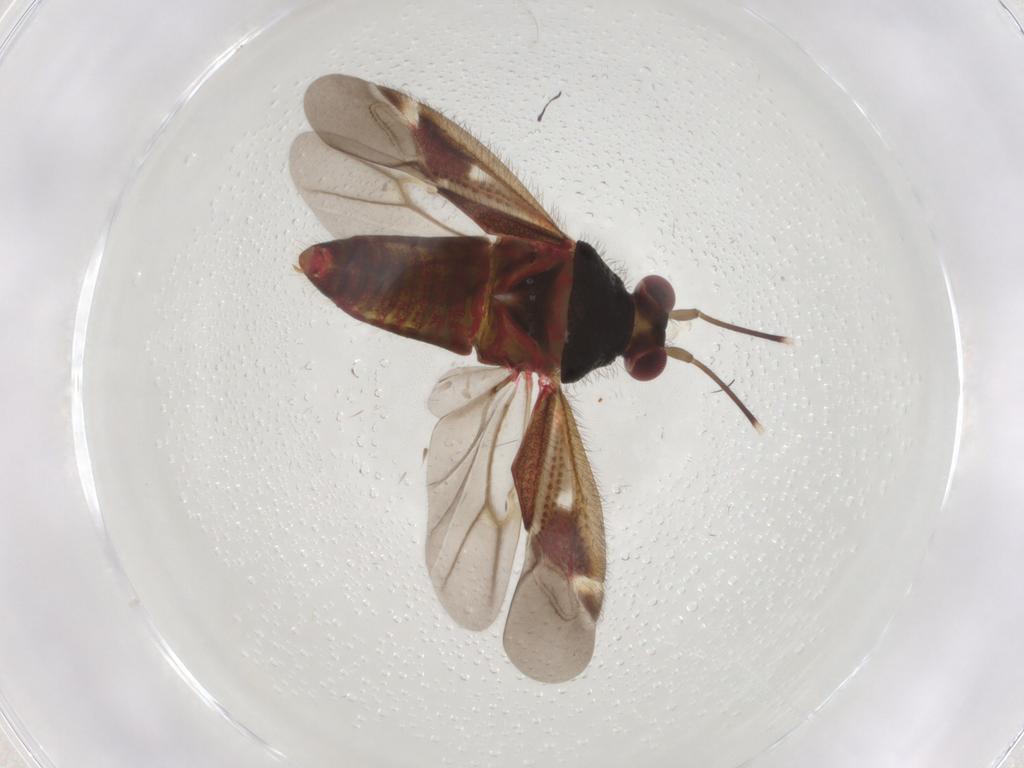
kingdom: Animalia
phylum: Arthropoda
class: Insecta
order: Hemiptera
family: Miridae
